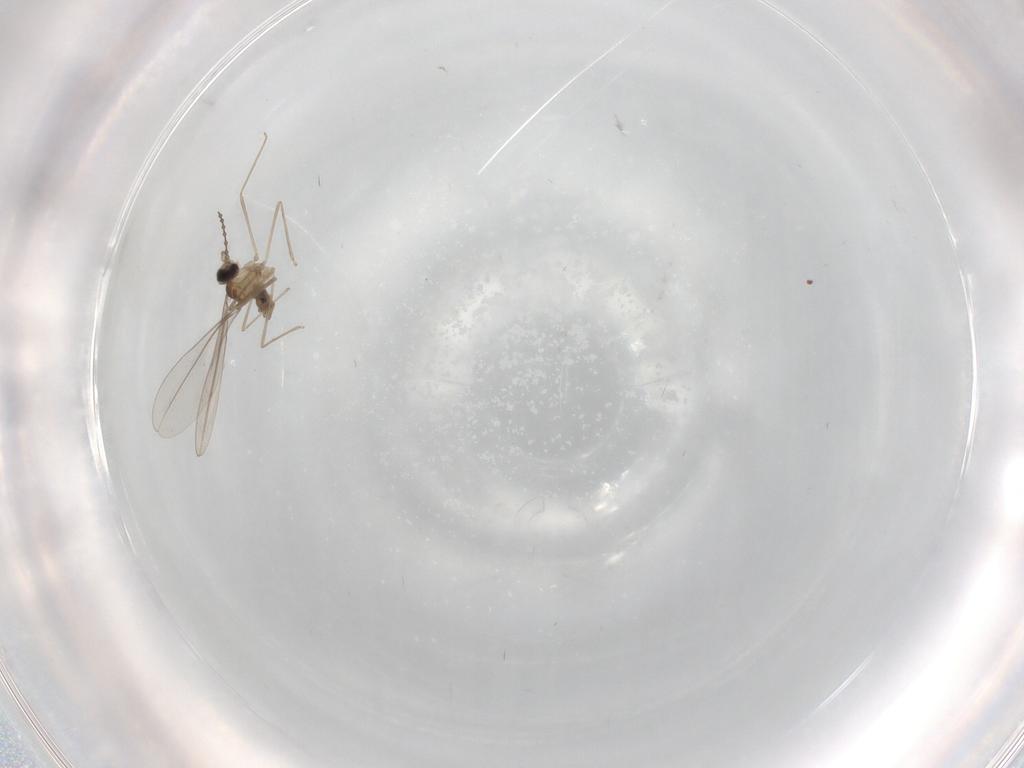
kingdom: Animalia
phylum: Arthropoda
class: Insecta
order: Diptera
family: Cecidomyiidae
